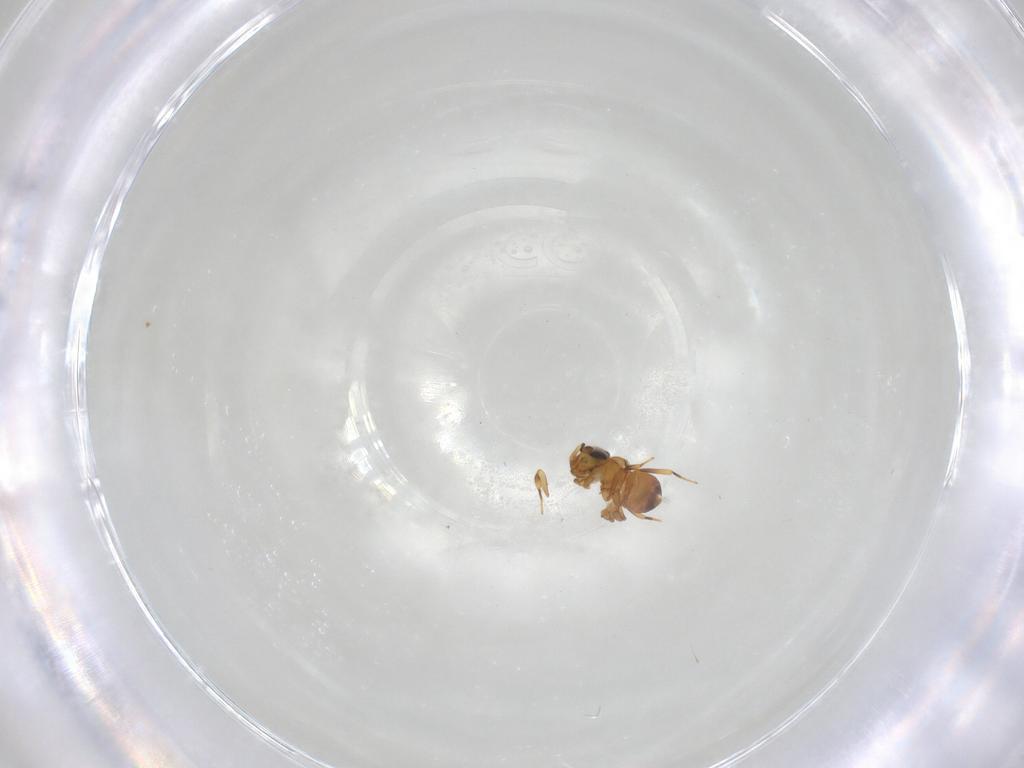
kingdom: Animalia
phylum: Arthropoda
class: Insecta
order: Hymenoptera
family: Scelionidae
